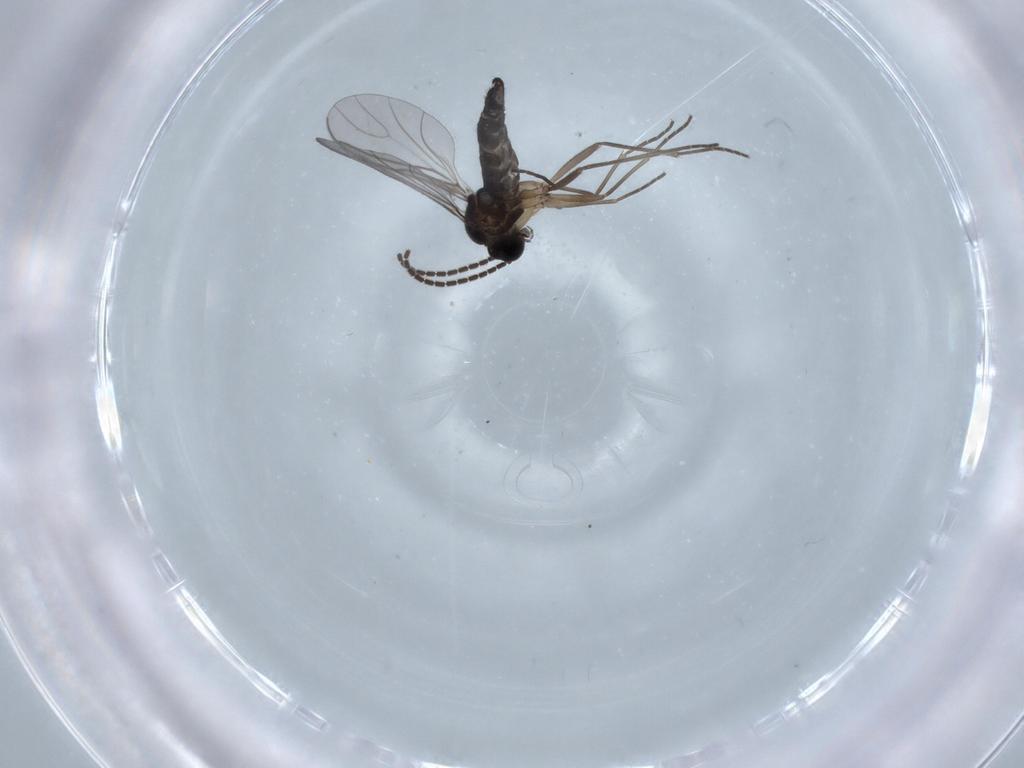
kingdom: Animalia
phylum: Arthropoda
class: Insecta
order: Diptera
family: Sciaridae
